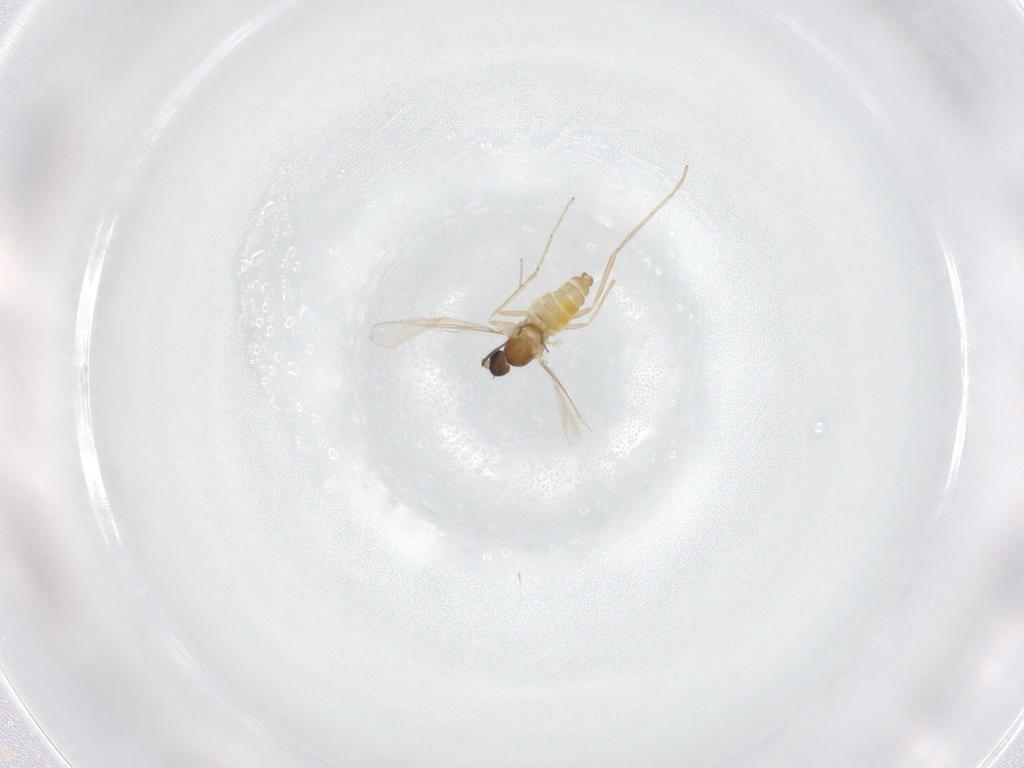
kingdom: Animalia
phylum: Arthropoda
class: Insecta
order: Diptera
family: Cecidomyiidae
